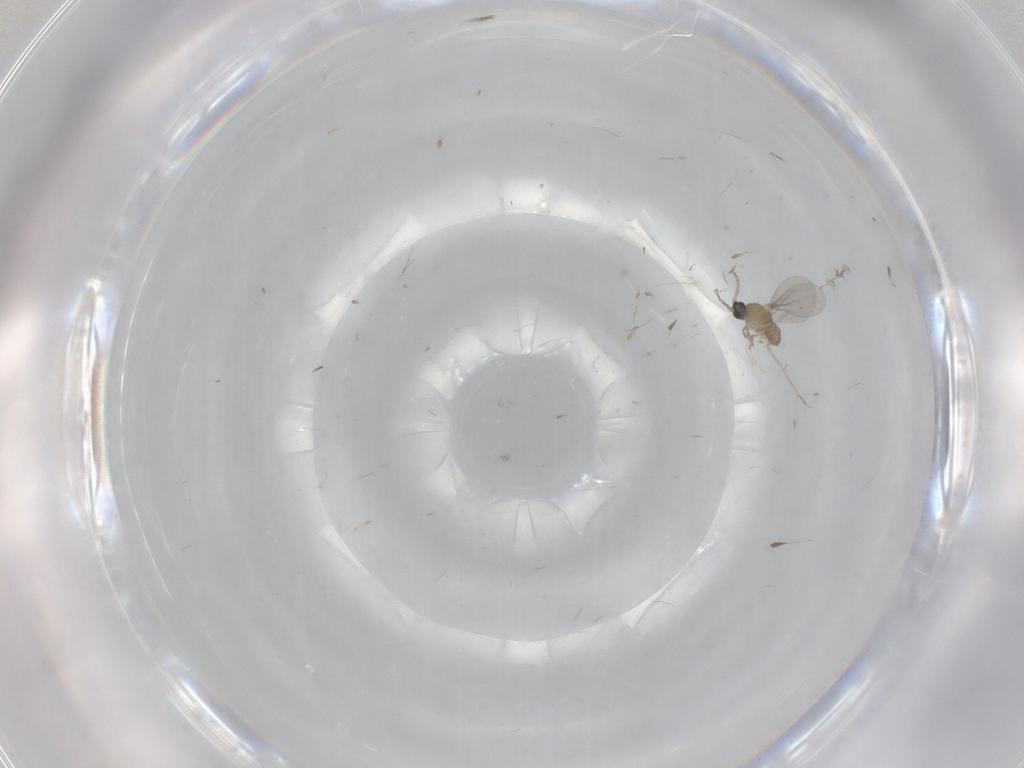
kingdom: Animalia
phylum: Arthropoda
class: Insecta
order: Diptera
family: Cecidomyiidae
